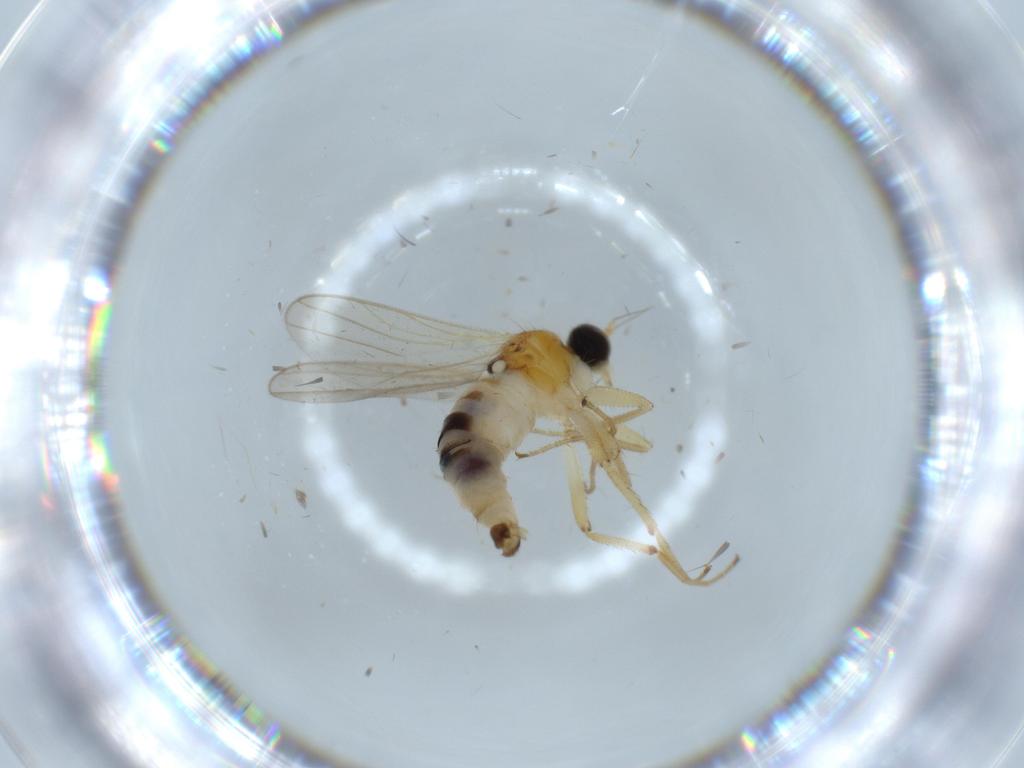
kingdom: Animalia
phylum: Arthropoda
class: Insecta
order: Diptera
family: Hybotidae
